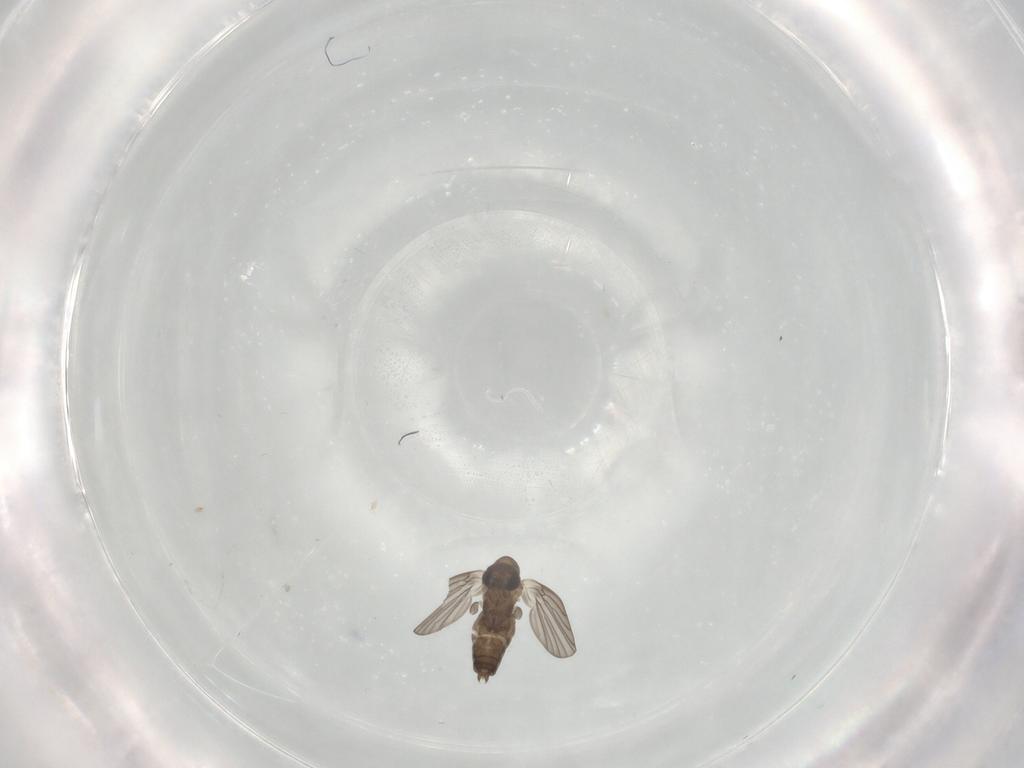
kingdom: Animalia
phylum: Arthropoda
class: Insecta
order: Diptera
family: Phoridae
